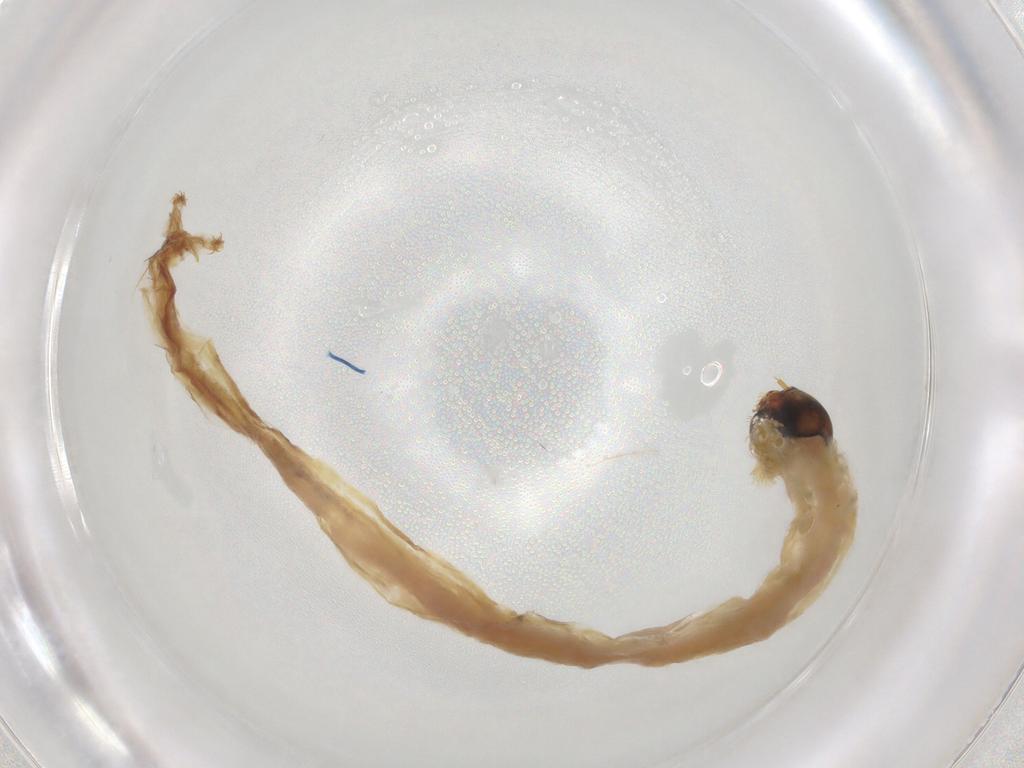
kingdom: Animalia
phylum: Arthropoda
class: Insecta
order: Diptera
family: Chironomidae
